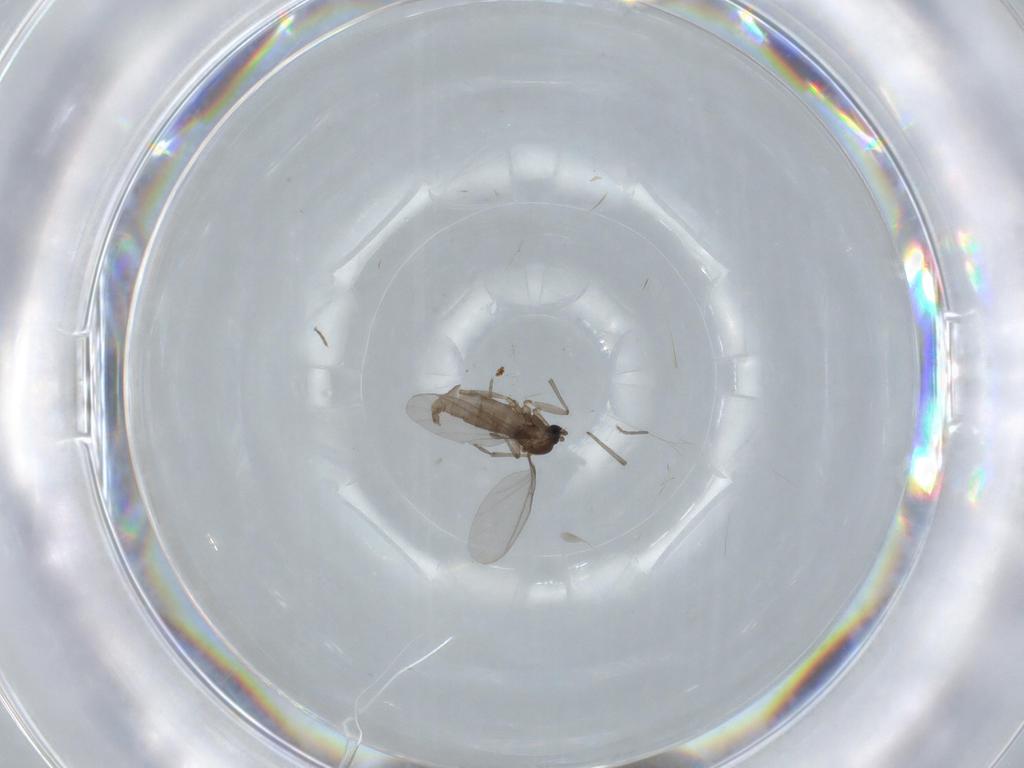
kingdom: Animalia
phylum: Arthropoda
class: Insecta
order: Diptera
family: Sciaridae
